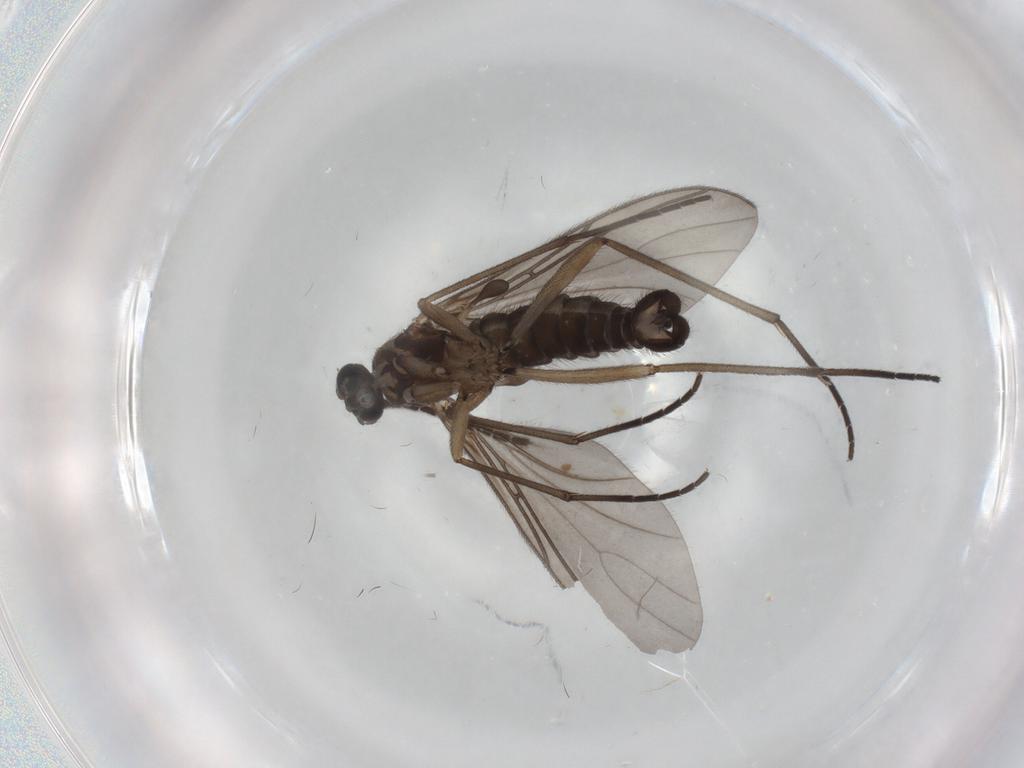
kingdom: Animalia
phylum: Arthropoda
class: Insecta
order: Diptera
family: Sciaridae
